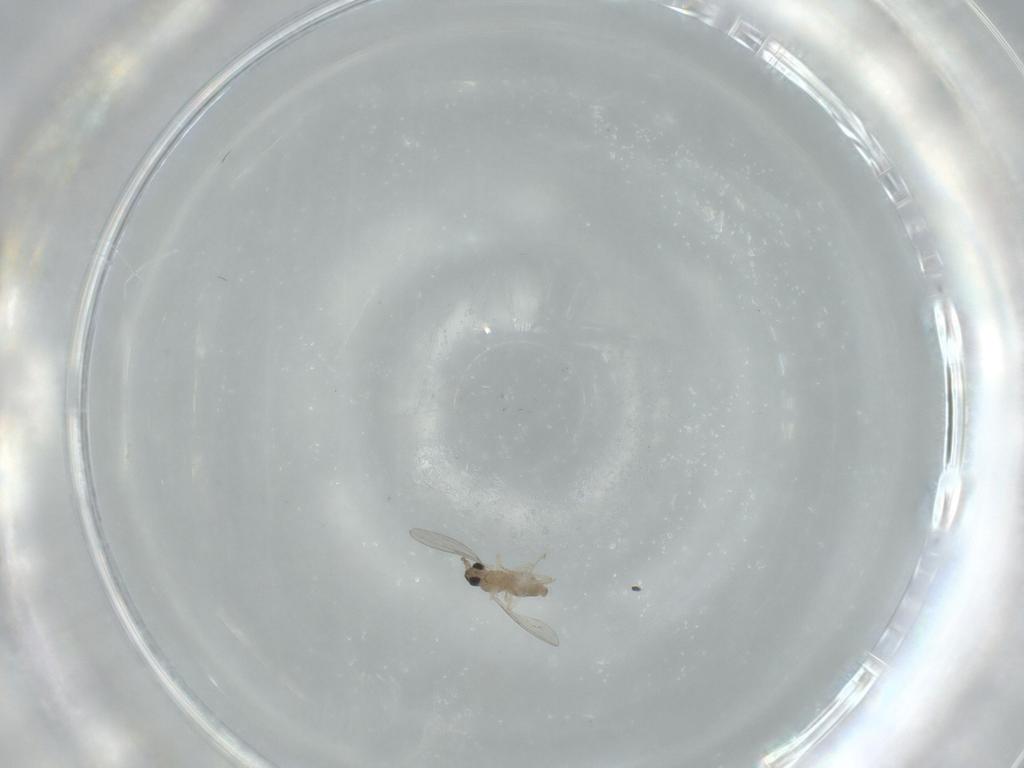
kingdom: Animalia
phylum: Arthropoda
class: Insecta
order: Diptera
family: Cecidomyiidae
